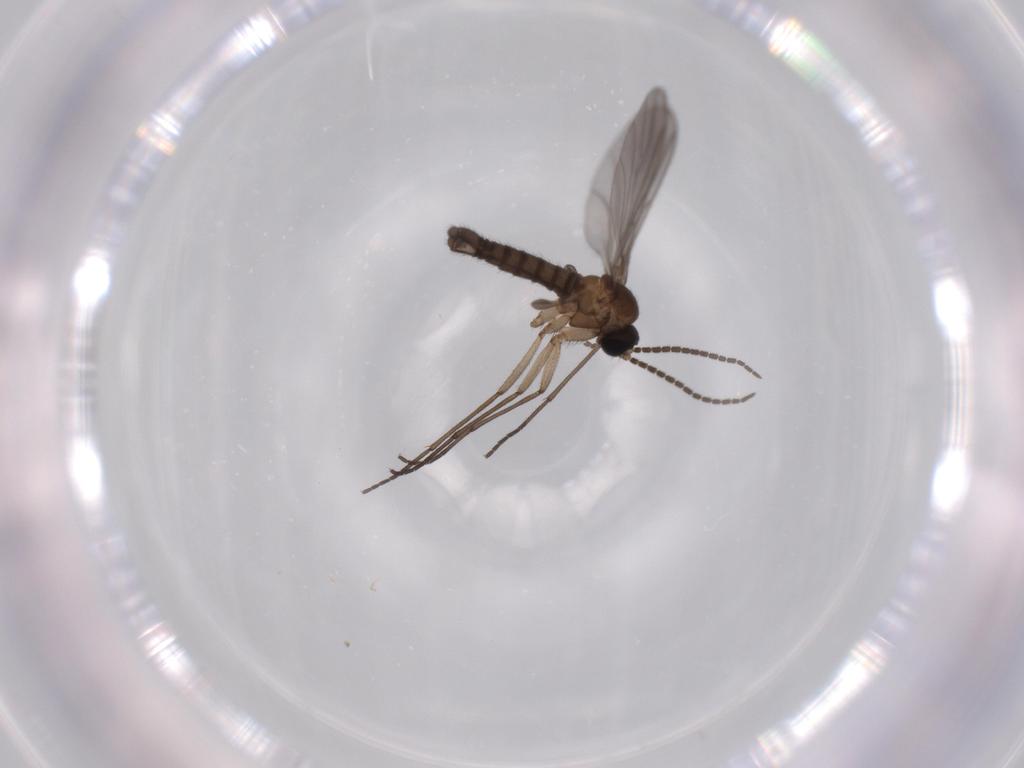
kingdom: Animalia
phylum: Arthropoda
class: Insecta
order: Diptera
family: Sciaridae
